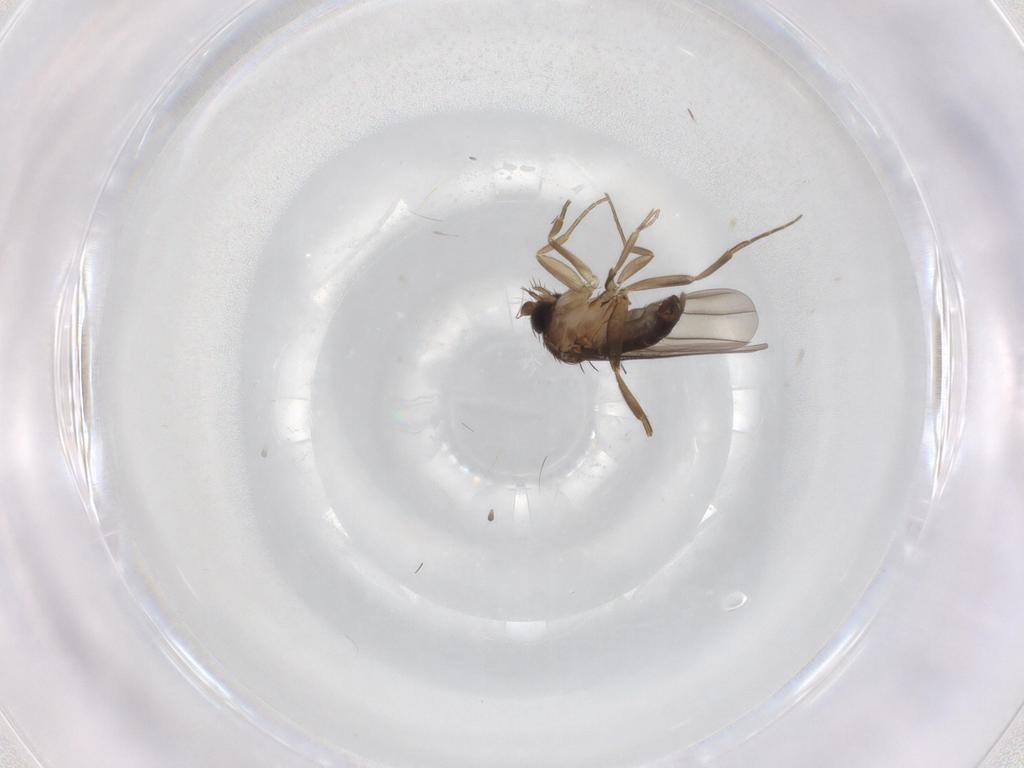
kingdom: Animalia
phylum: Arthropoda
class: Insecta
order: Diptera
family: Phoridae
